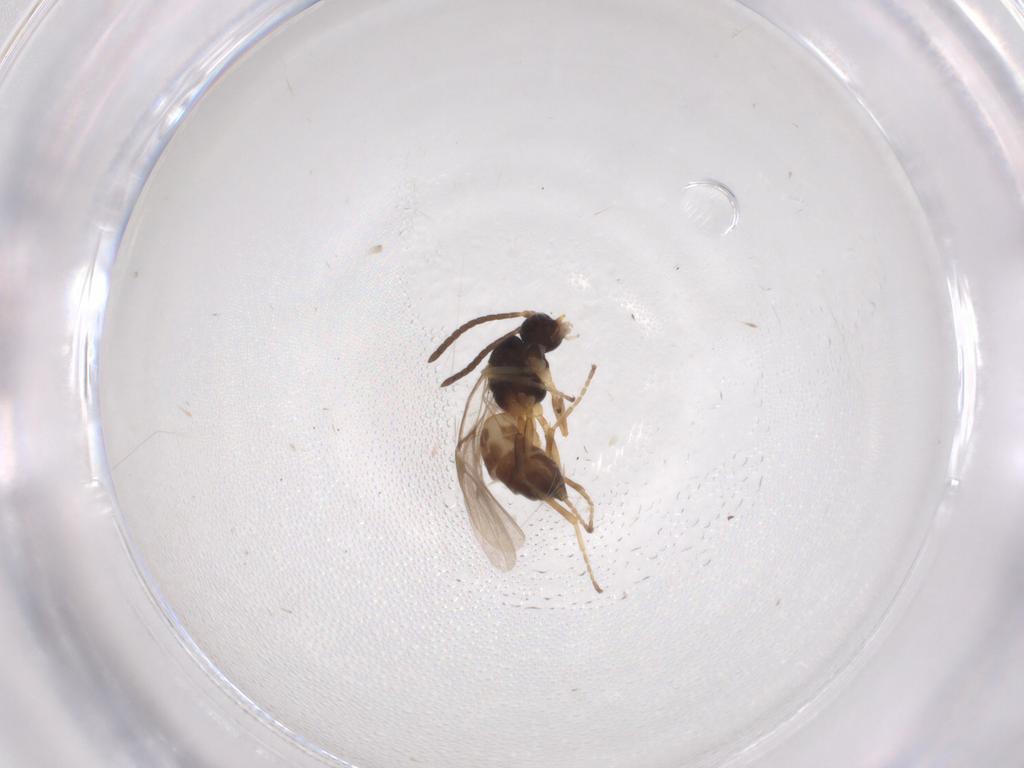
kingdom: Animalia
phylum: Arthropoda
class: Insecta
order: Hymenoptera
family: Braconidae
